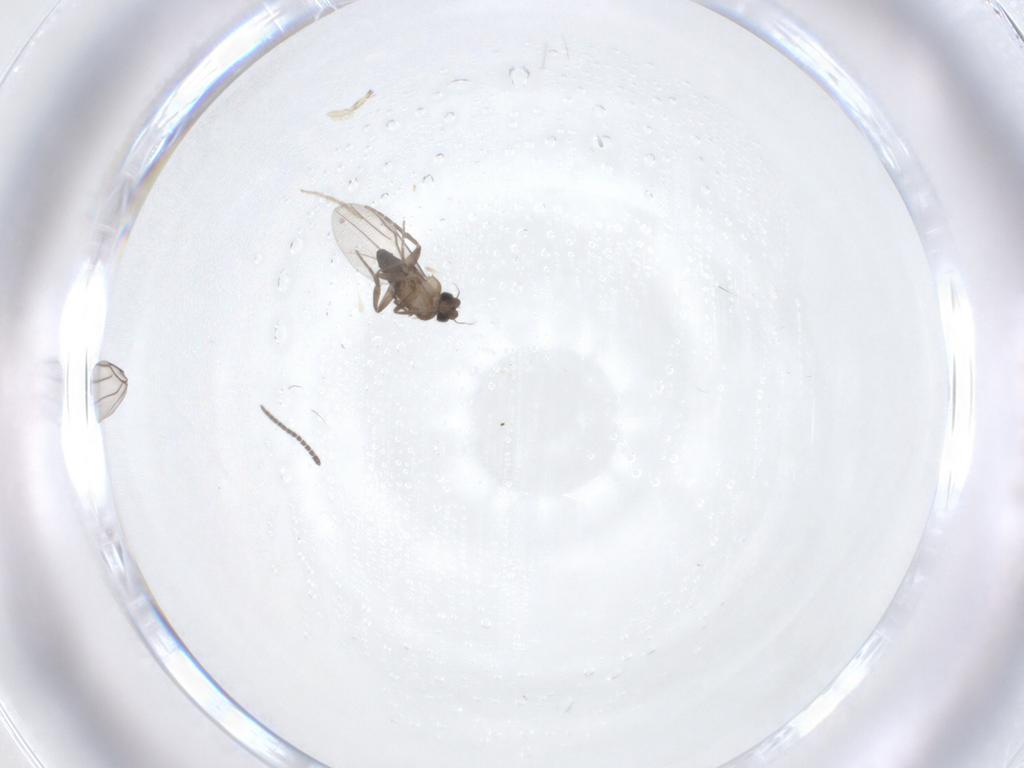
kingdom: Animalia
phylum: Arthropoda
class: Insecta
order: Diptera
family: Phoridae
